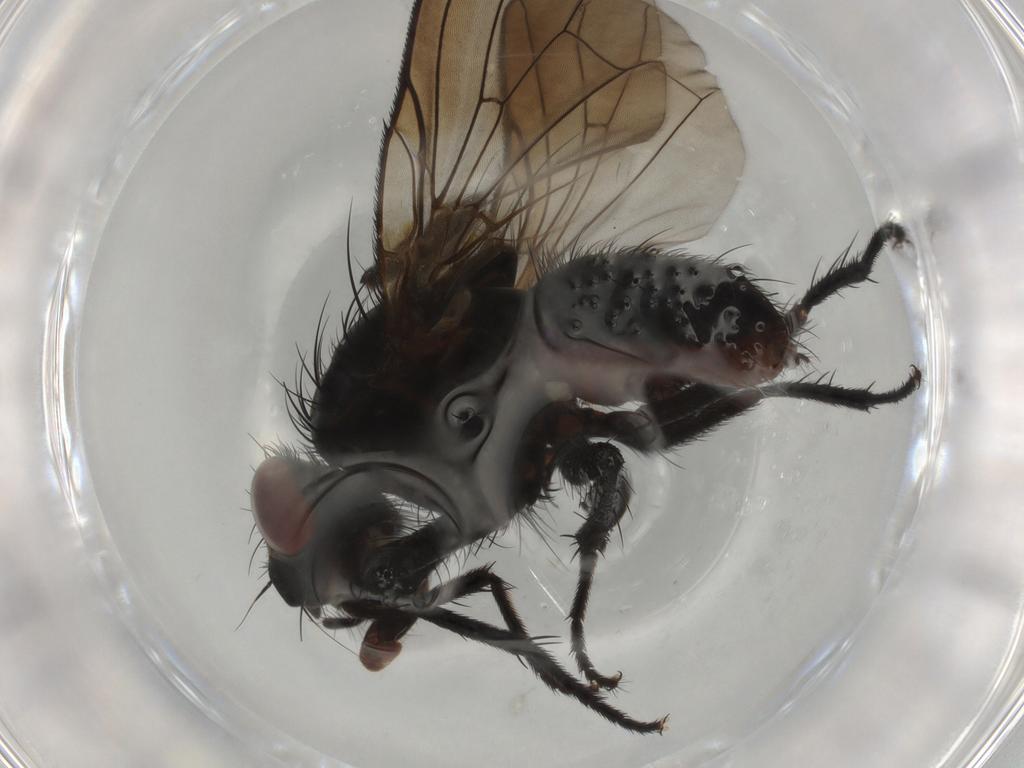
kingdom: Animalia
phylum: Arthropoda
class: Insecta
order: Diptera
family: Anthomyiidae
